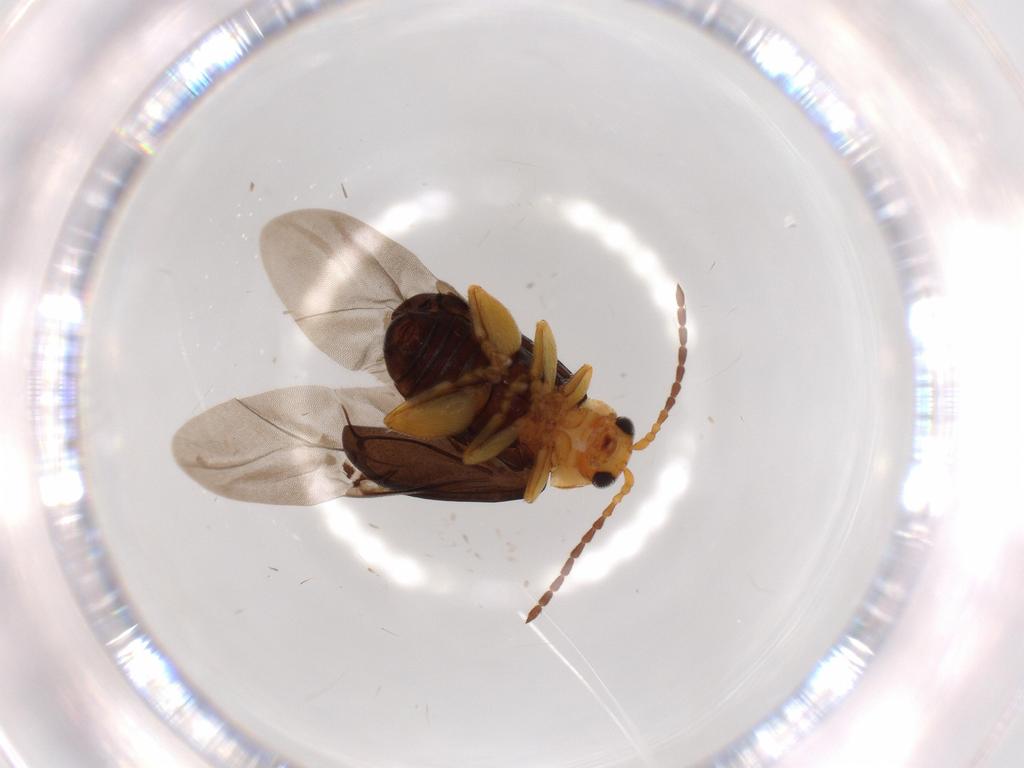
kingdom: Animalia
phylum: Arthropoda
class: Insecta
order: Coleoptera
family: Chrysomelidae
